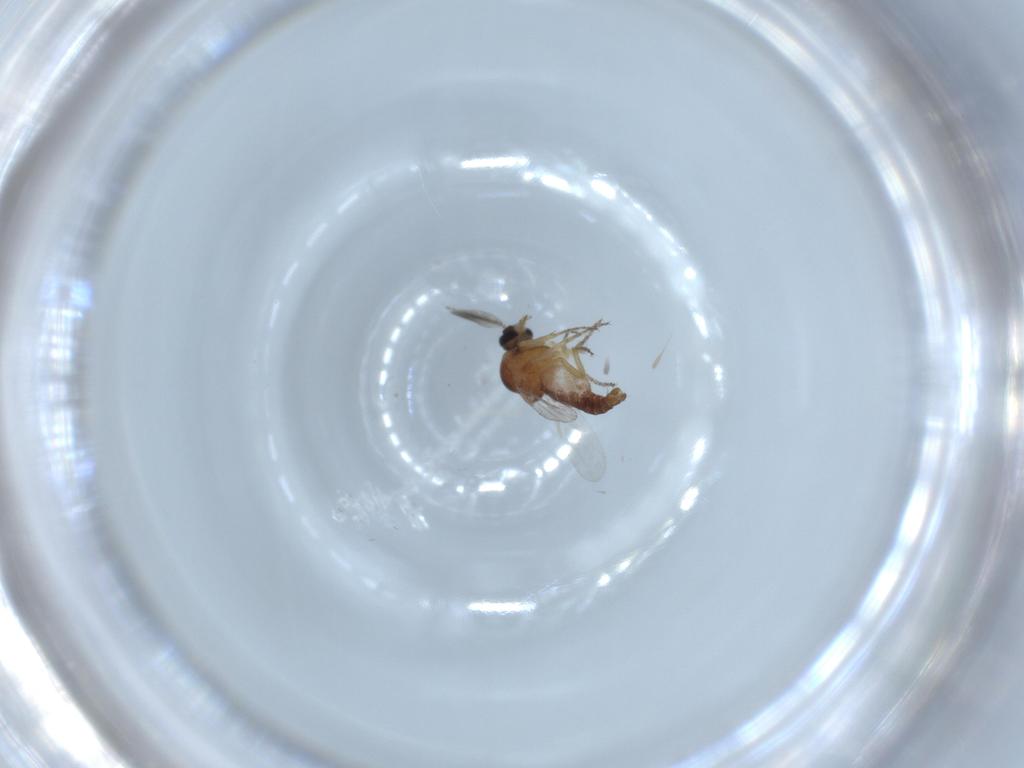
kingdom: Animalia
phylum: Arthropoda
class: Insecta
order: Diptera
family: Ceratopogonidae
